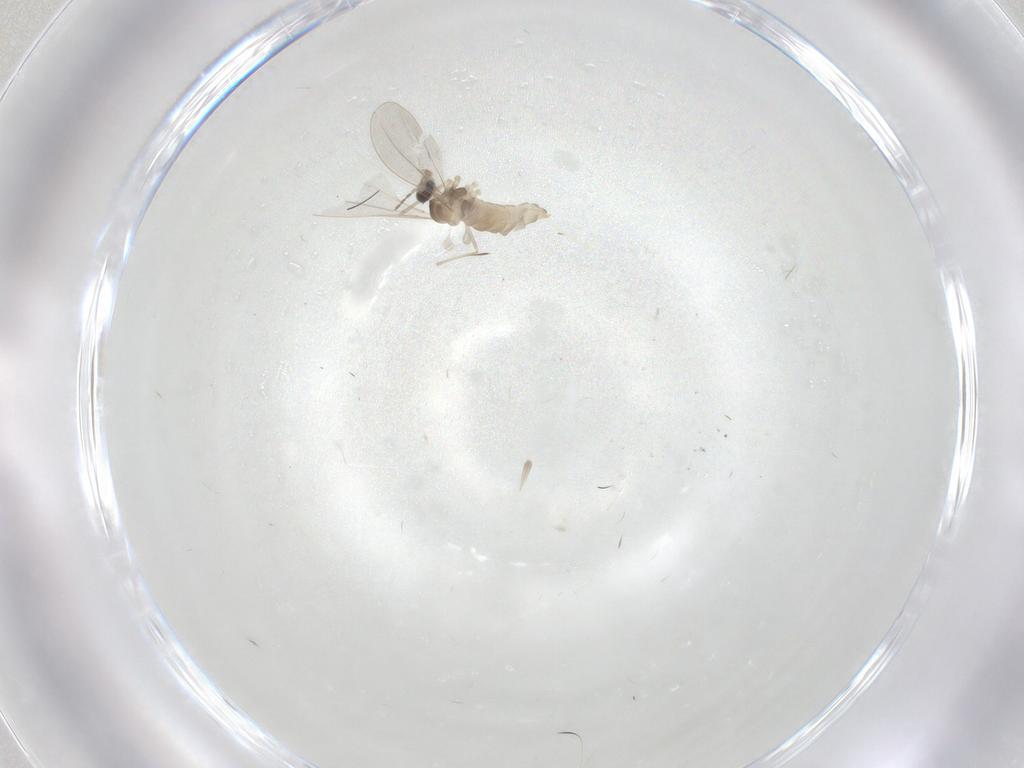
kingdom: Animalia
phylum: Arthropoda
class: Insecta
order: Diptera
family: Cecidomyiidae
